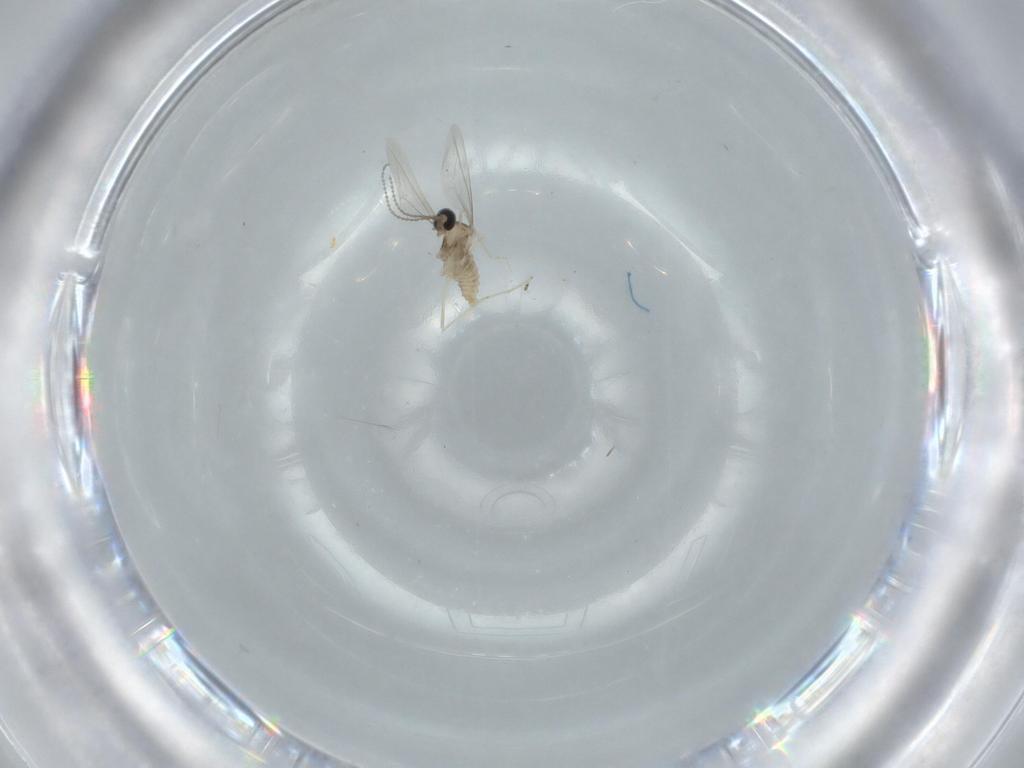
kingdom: Animalia
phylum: Arthropoda
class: Insecta
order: Diptera
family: Cecidomyiidae
